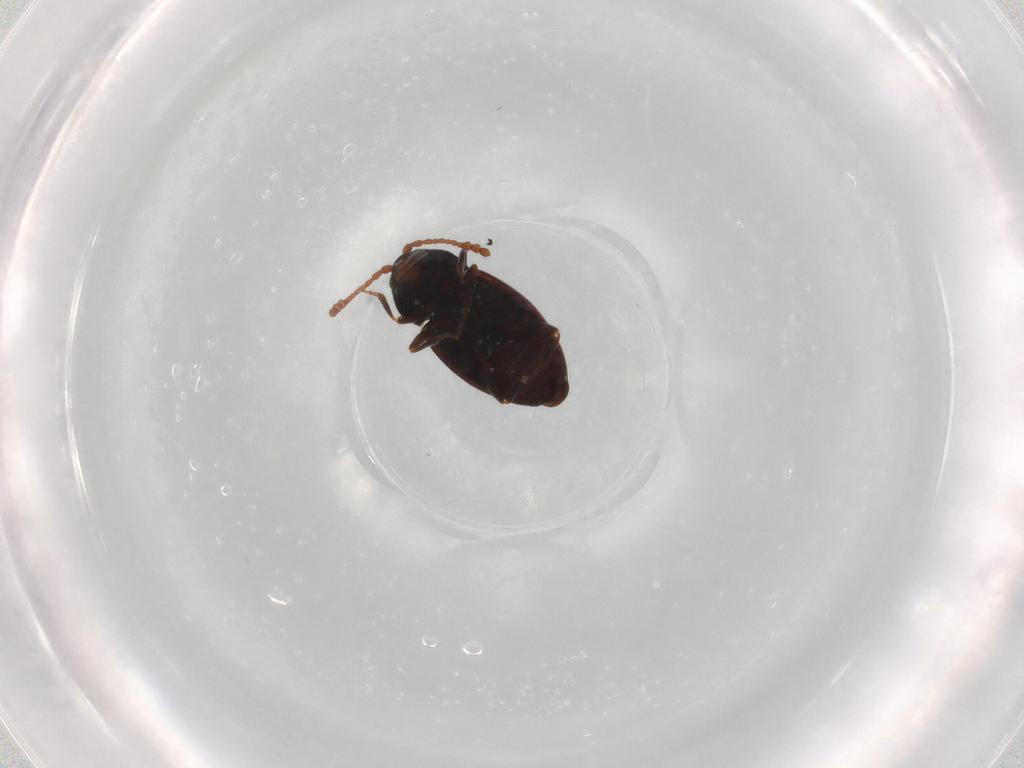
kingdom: Animalia
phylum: Arthropoda
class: Insecta
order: Coleoptera
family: Cryptophagidae
